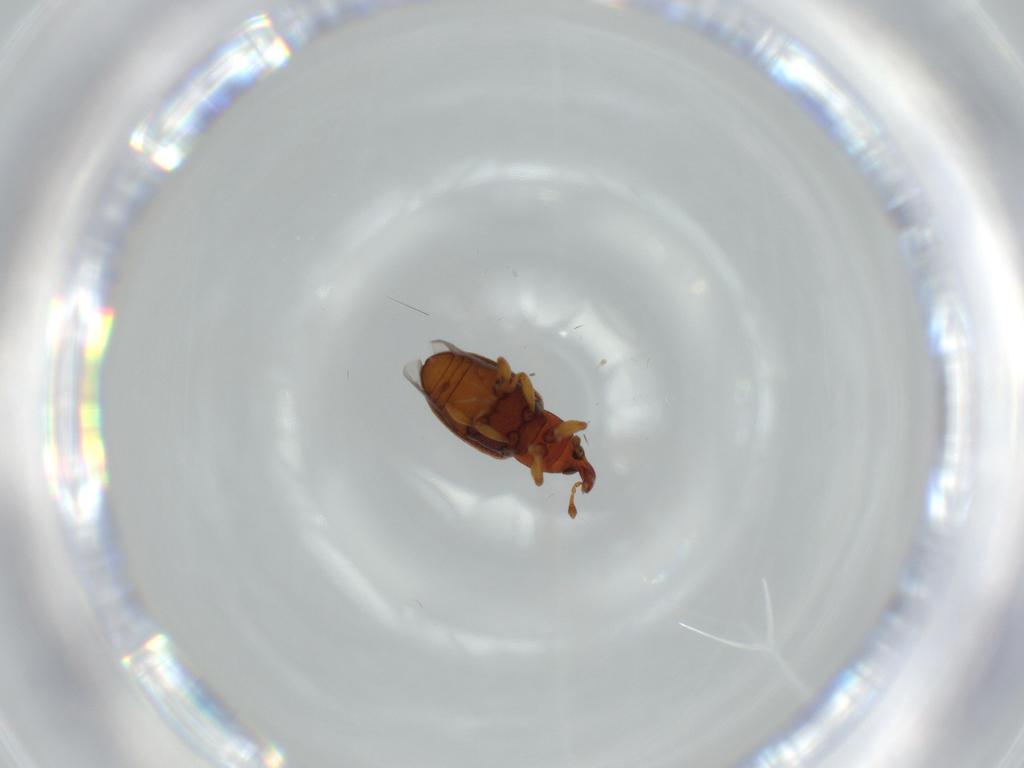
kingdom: Animalia
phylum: Arthropoda
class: Insecta
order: Coleoptera
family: Curculionidae
